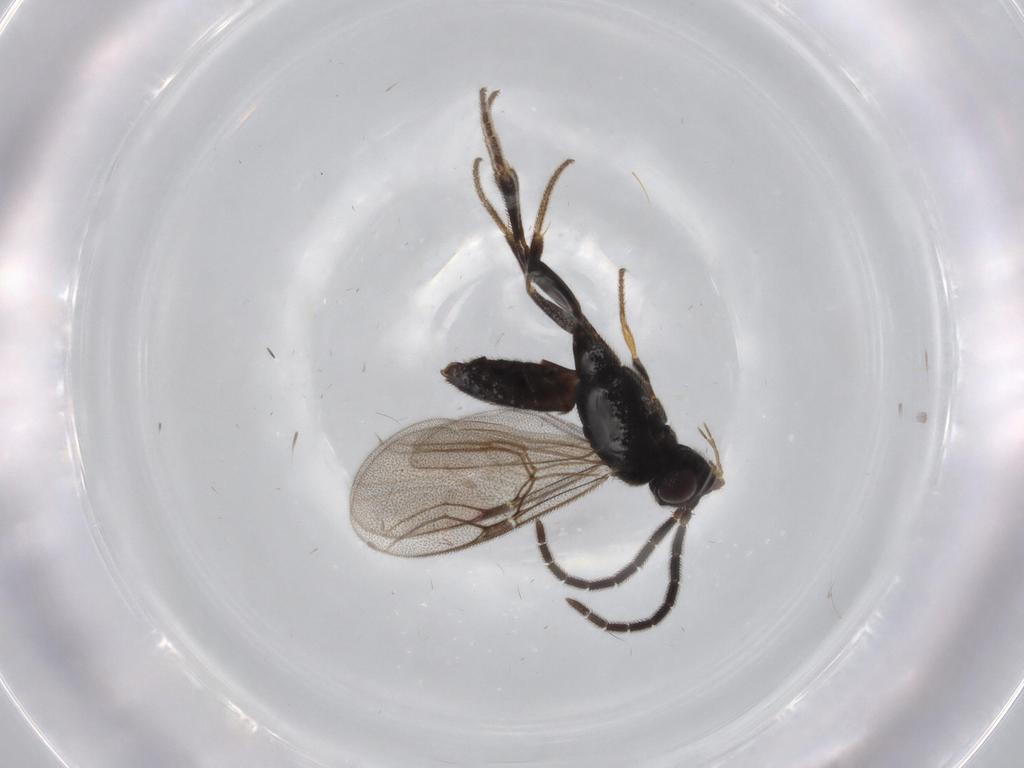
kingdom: Animalia
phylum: Arthropoda
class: Insecta
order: Hymenoptera
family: Dryinidae
